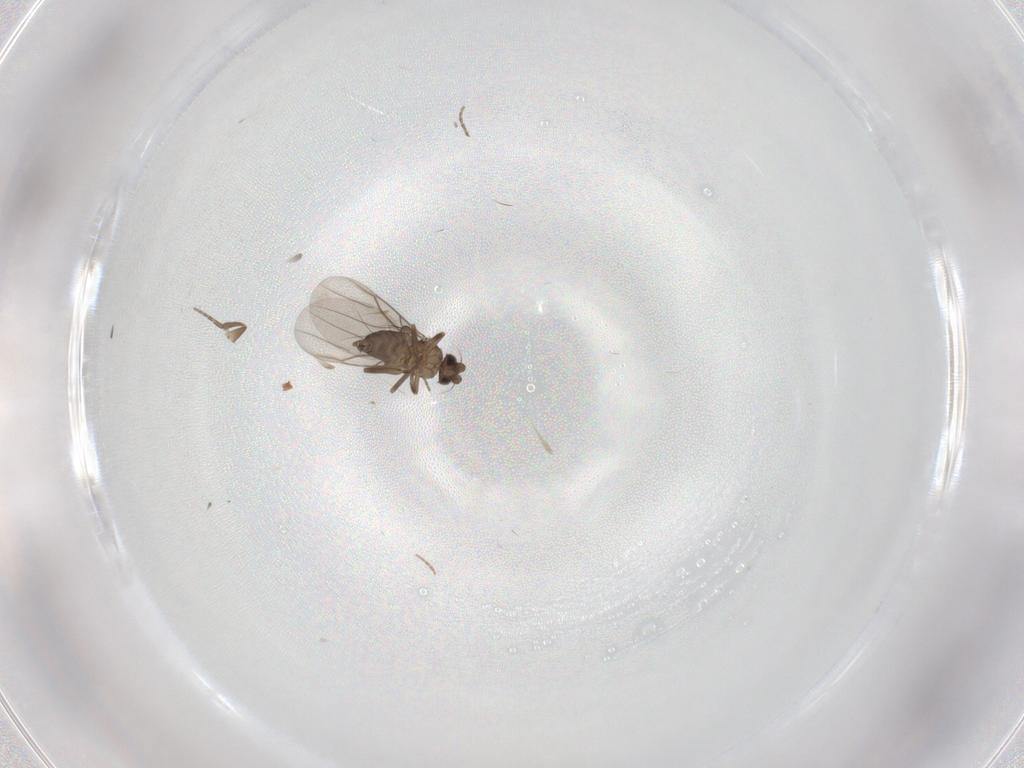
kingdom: Animalia
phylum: Arthropoda
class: Insecta
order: Diptera
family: Phoridae
